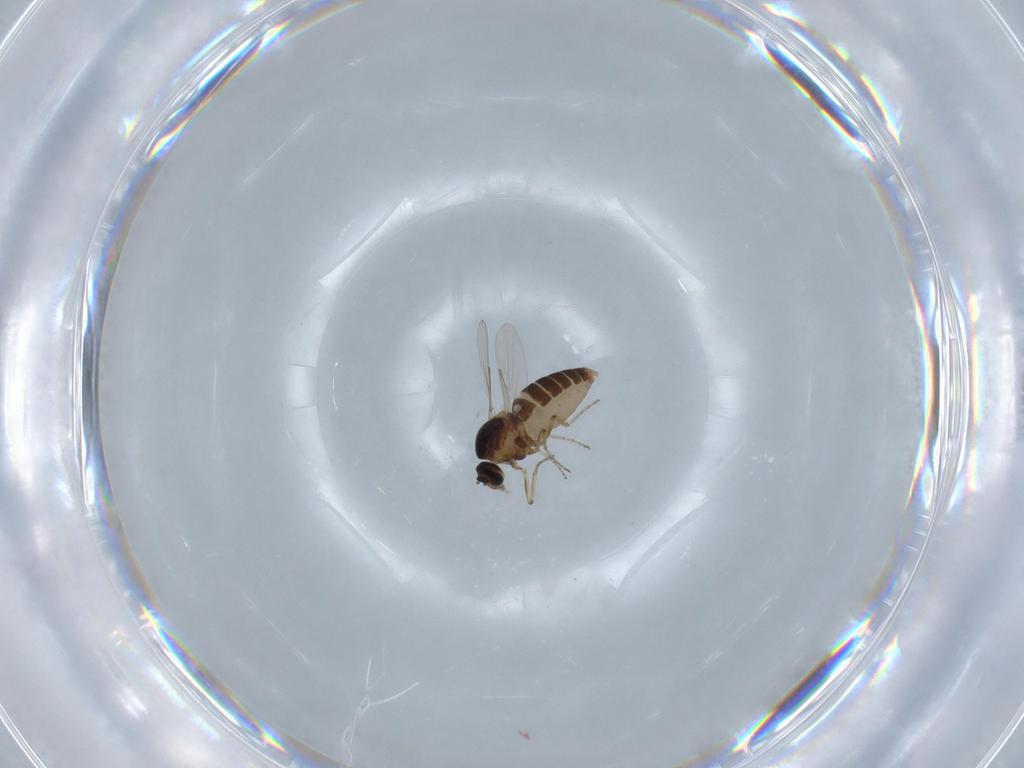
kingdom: Animalia
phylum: Arthropoda
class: Insecta
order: Diptera
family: Ceratopogonidae
